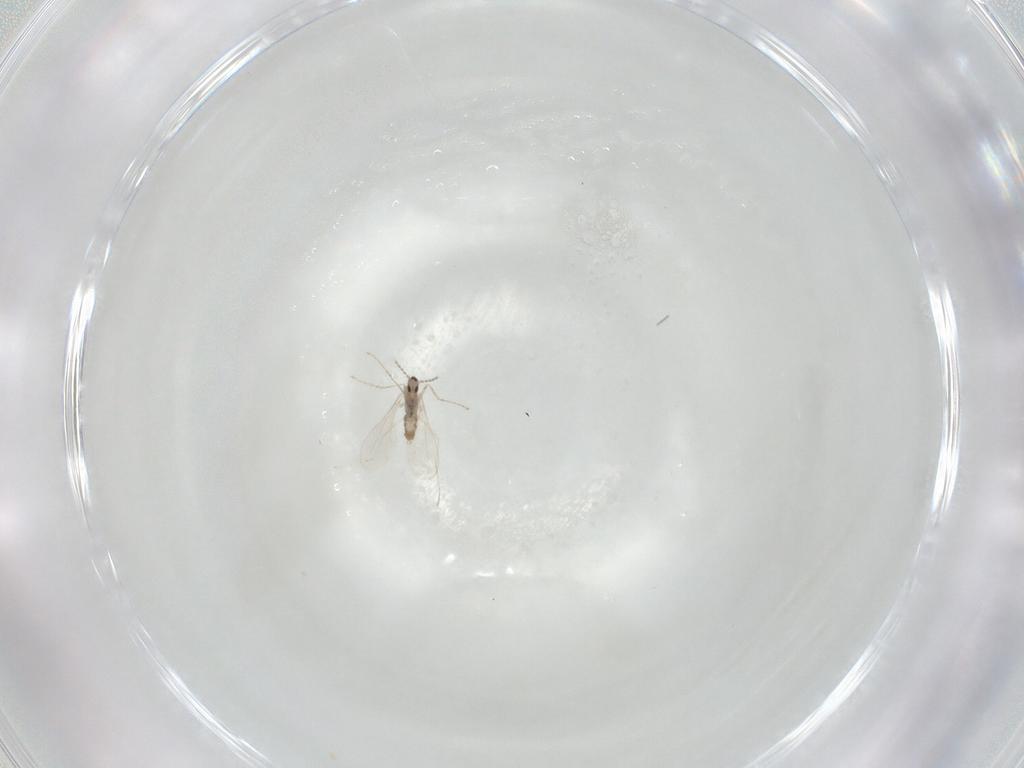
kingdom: Animalia
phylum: Arthropoda
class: Insecta
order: Diptera
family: Cecidomyiidae
